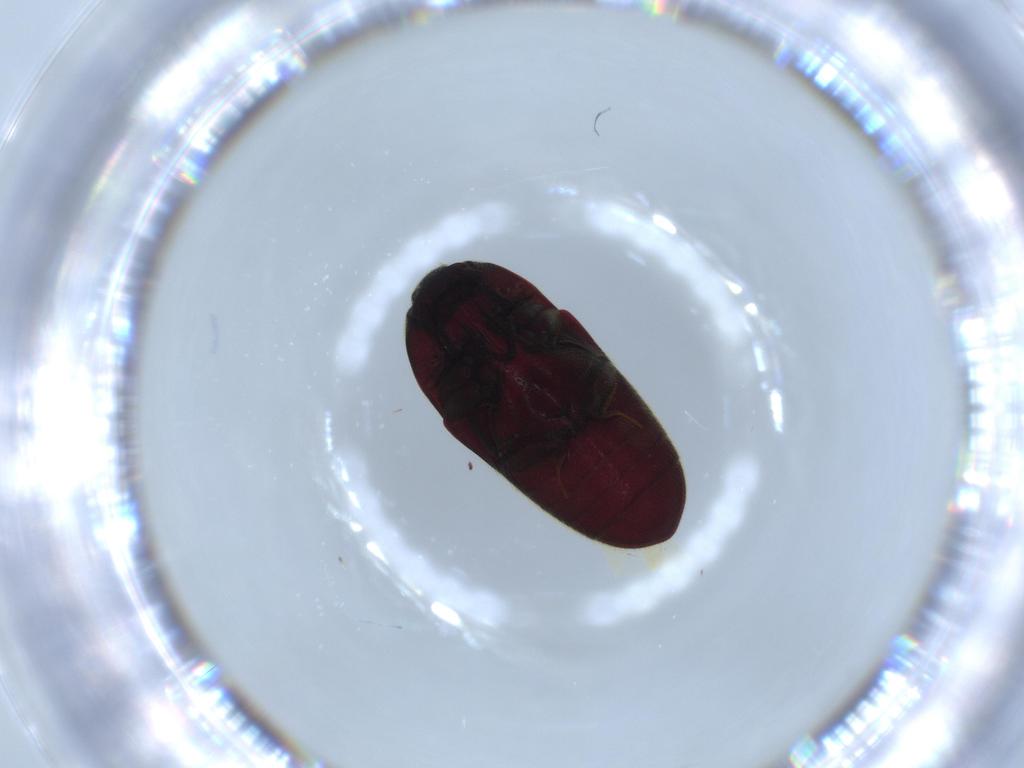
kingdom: Animalia
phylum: Arthropoda
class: Insecta
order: Coleoptera
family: Throscidae
